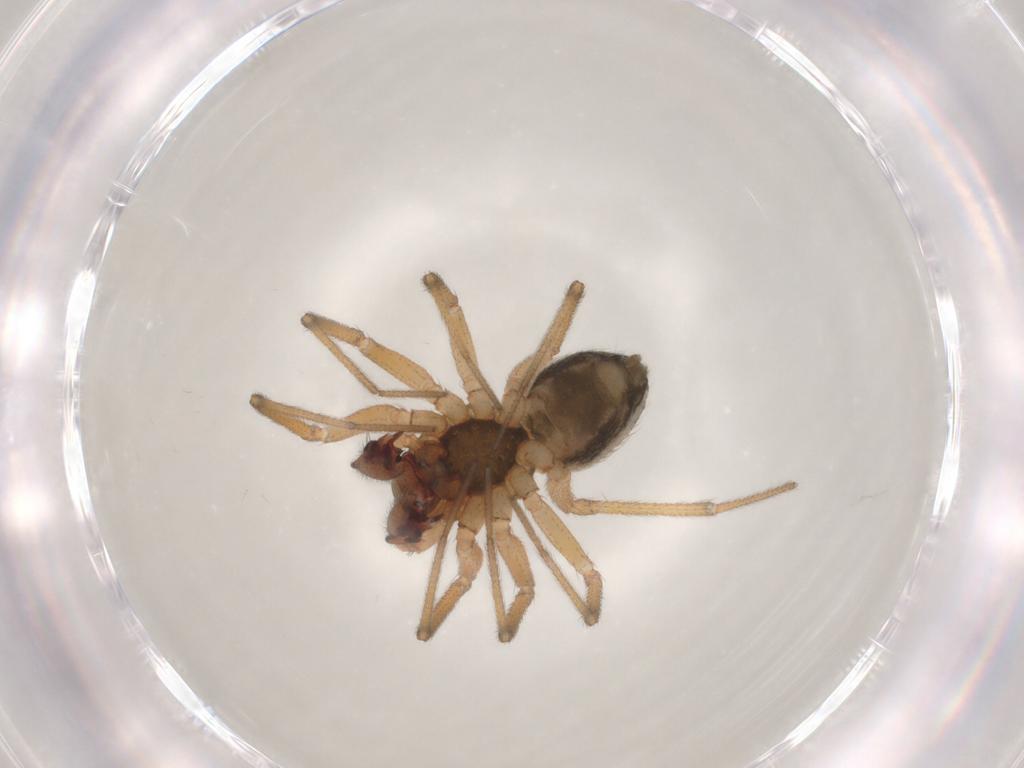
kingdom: Animalia
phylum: Arthropoda
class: Arachnida
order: Araneae
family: Linyphiidae
